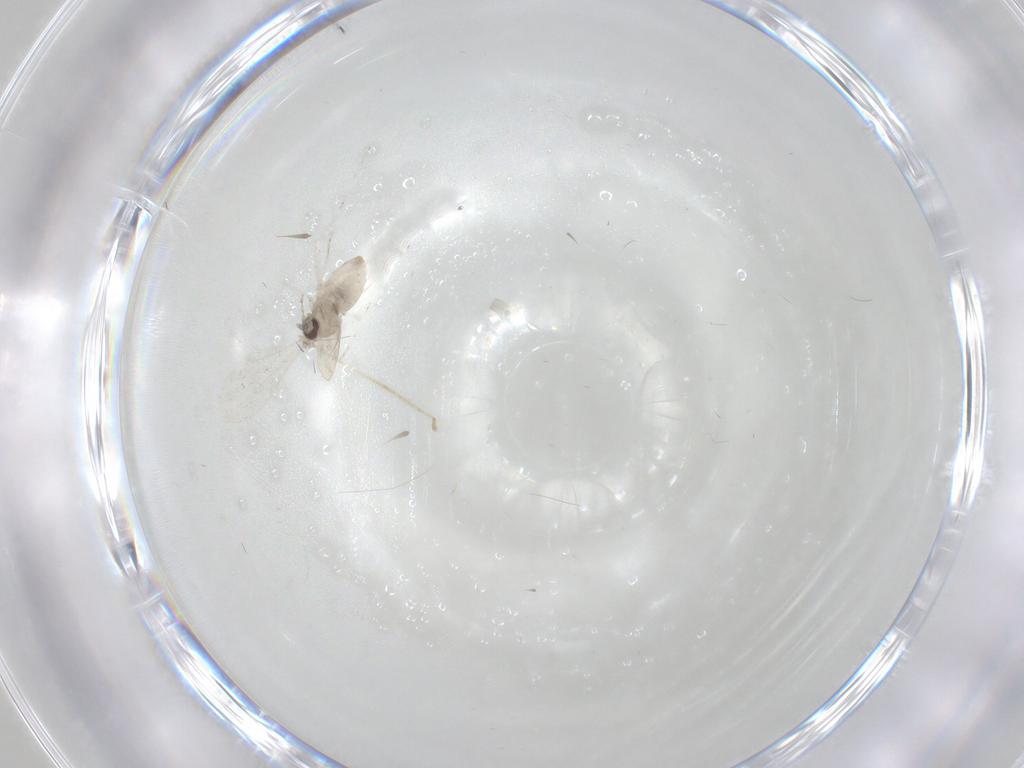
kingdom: Animalia
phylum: Arthropoda
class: Insecta
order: Diptera
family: Cecidomyiidae
